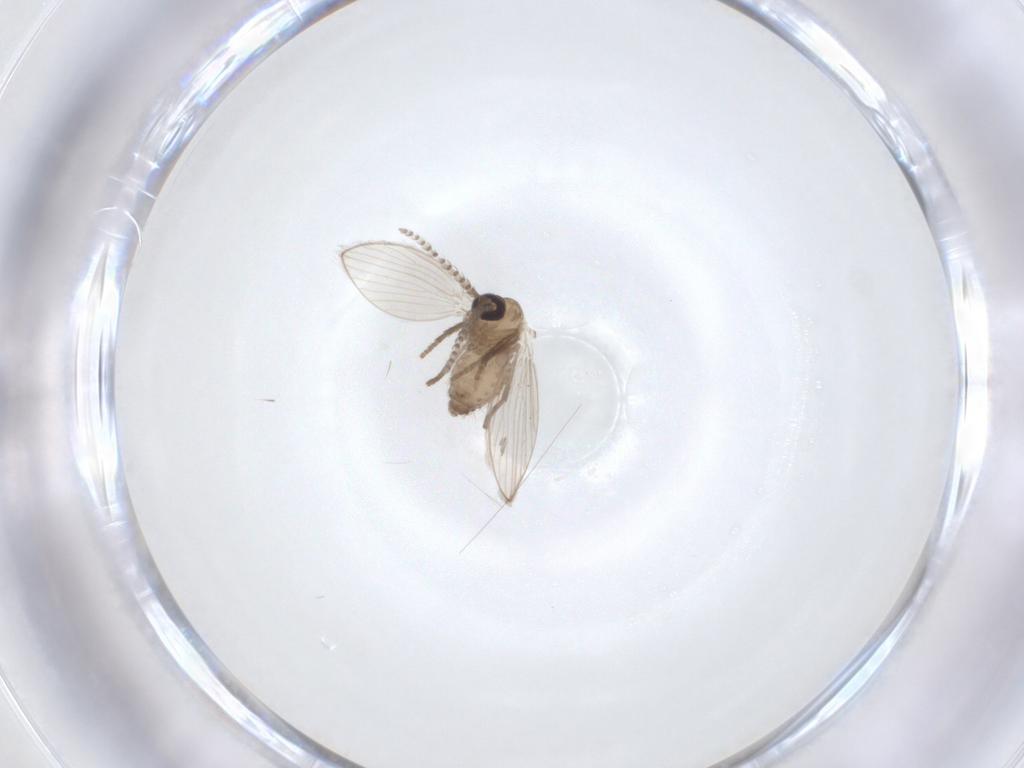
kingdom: Animalia
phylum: Arthropoda
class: Insecta
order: Diptera
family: Psychodidae
